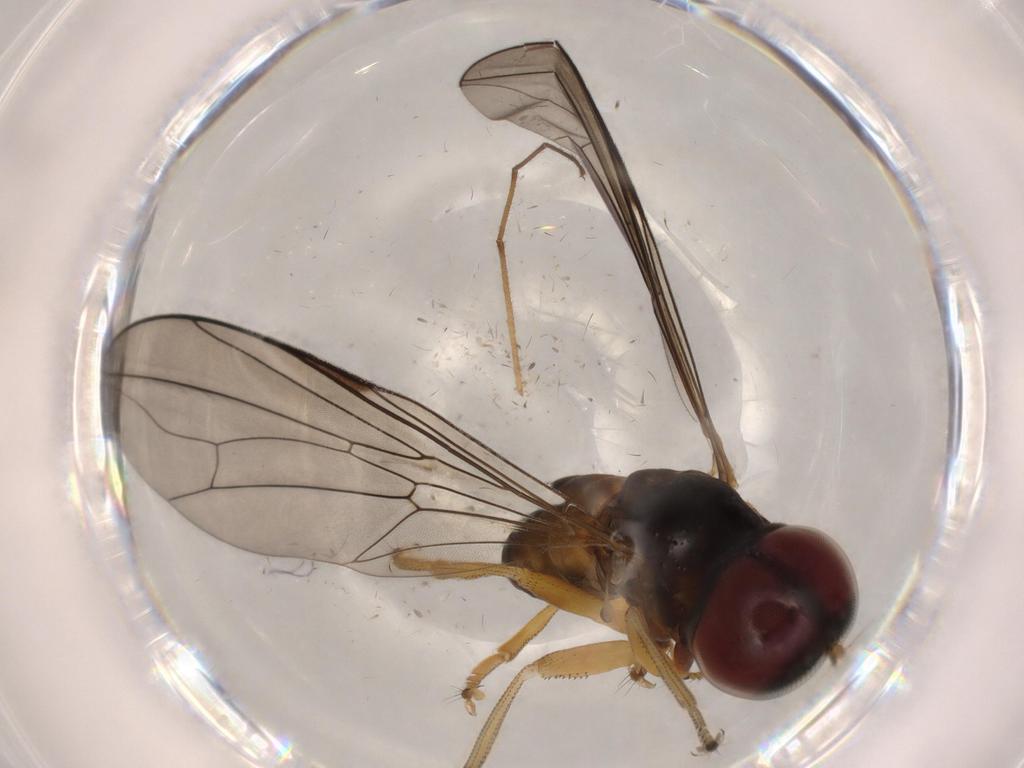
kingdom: Animalia
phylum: Arthropoda
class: Insecta
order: Diptera
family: Pipunculidae
